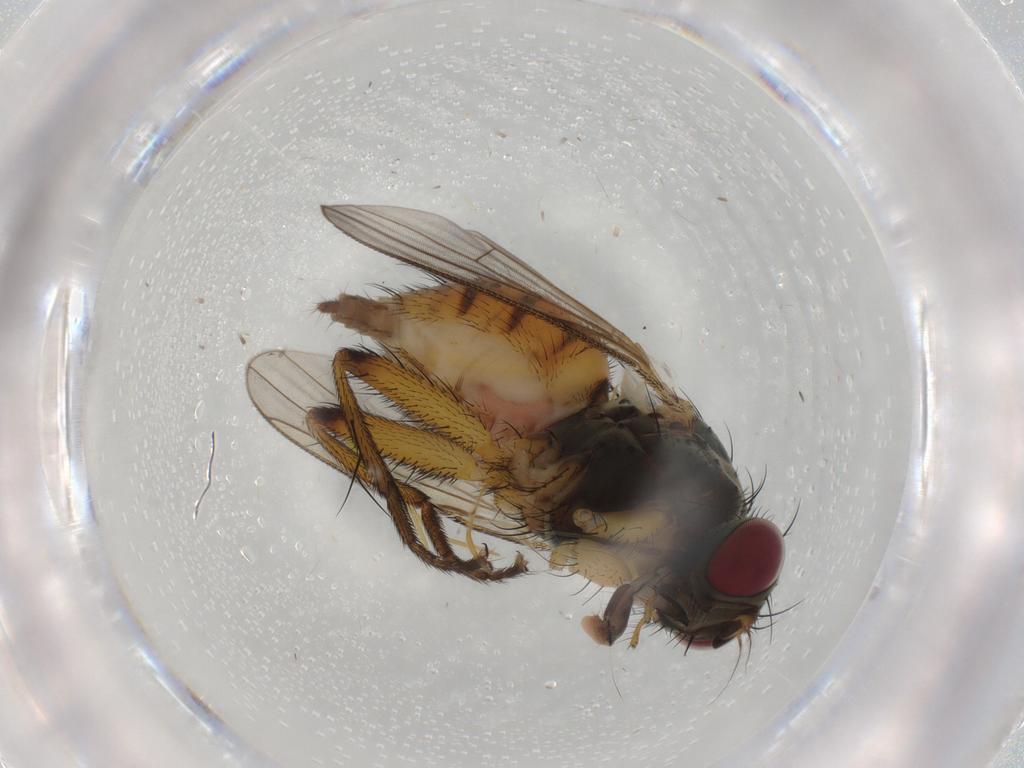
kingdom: Animalia
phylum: Arthropoda
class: Insecta
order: Diptera
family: Muscidae
